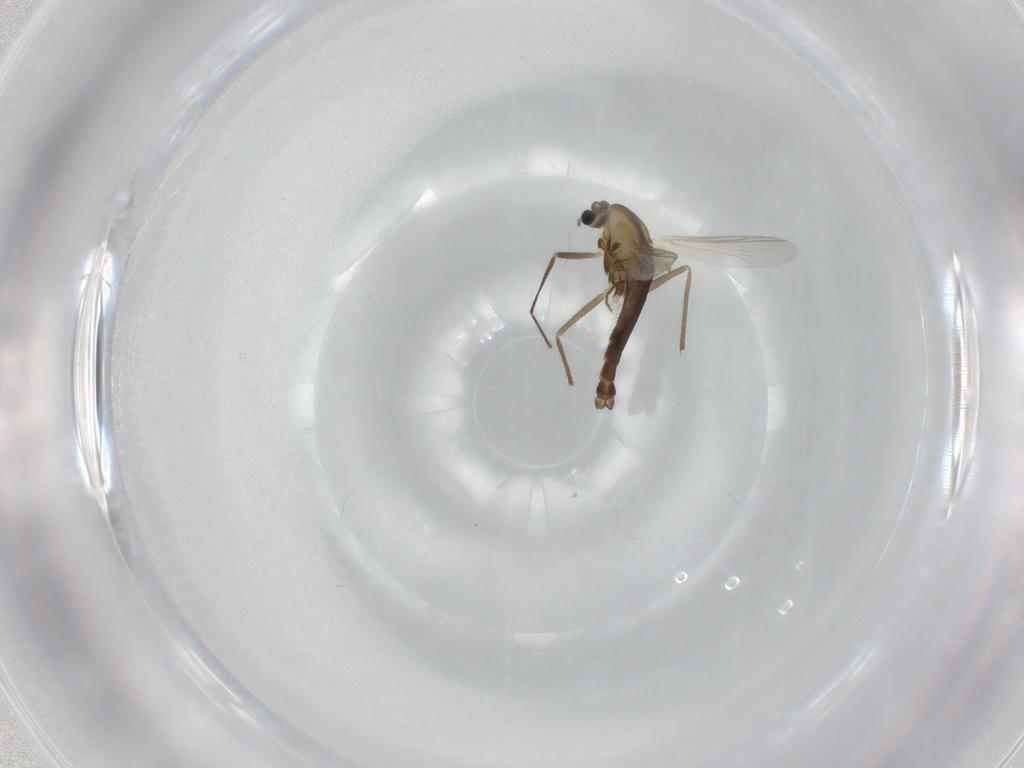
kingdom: Animalia
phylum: Arthropoda
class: Insecta
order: Diptera
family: Chironomidae
